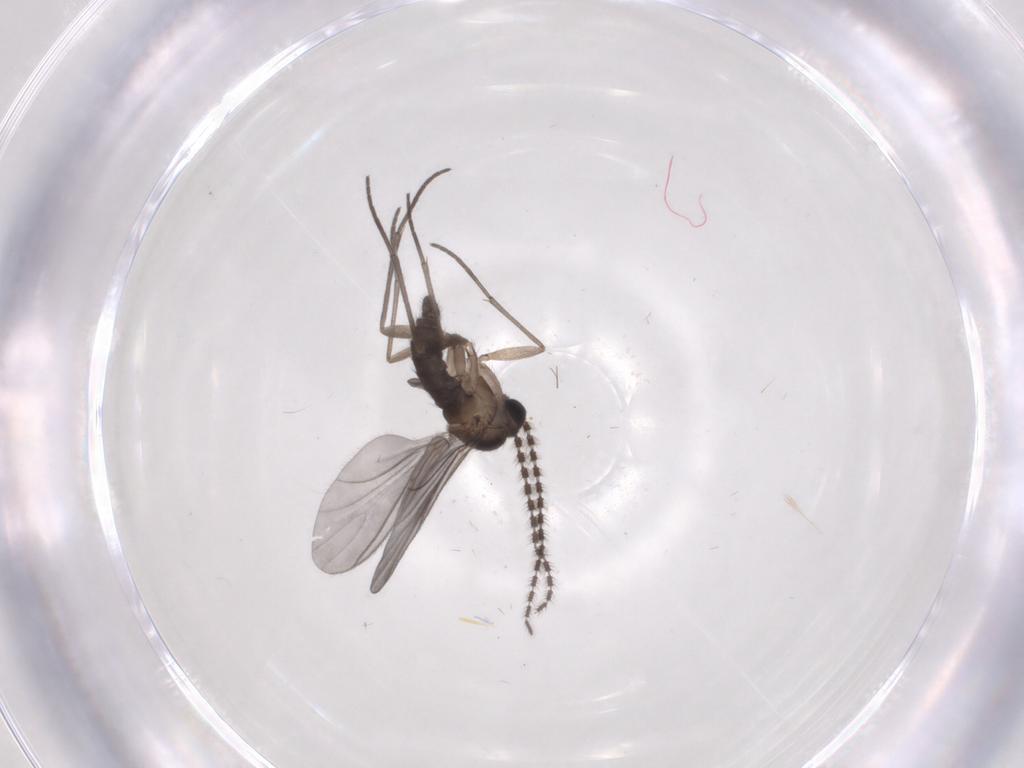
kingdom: Animalia
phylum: Arthropoda
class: Insecta
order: Diptera
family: Sciaridae
